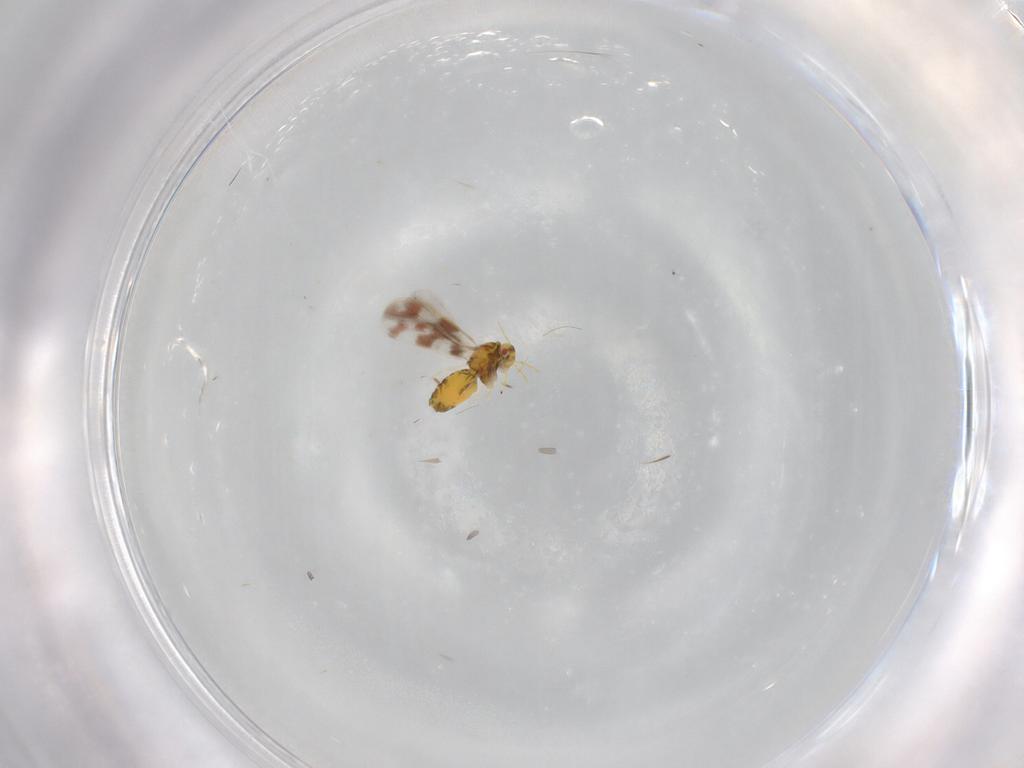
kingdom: Animalia
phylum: Arthropoda
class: Insecta
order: Hemiptera
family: Aleyrodidae
